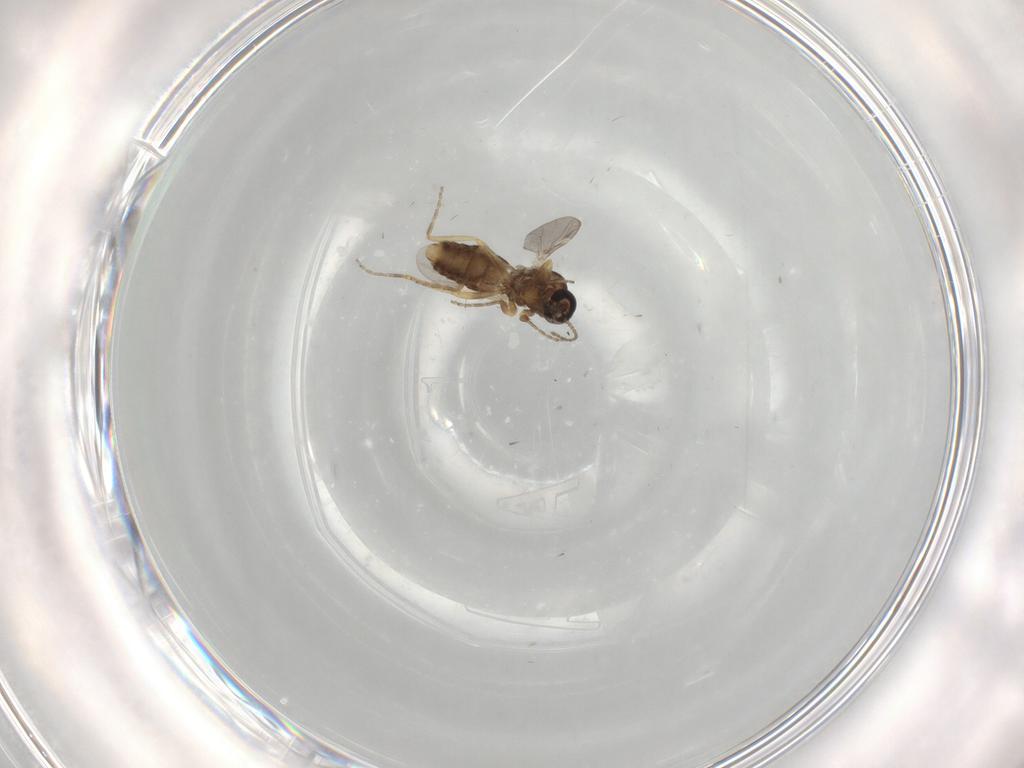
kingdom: Animalia
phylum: Arthropoda
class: Insecta
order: Diptera
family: Ceratopogonidae
